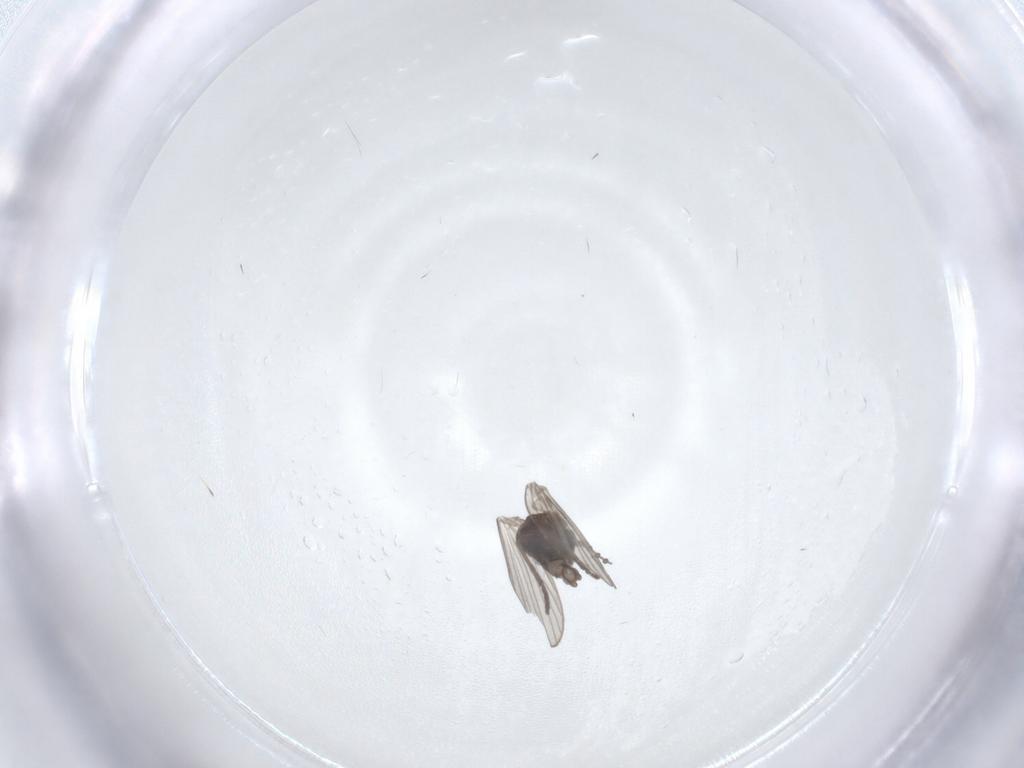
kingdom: Animalia
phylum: Arthropoda
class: Insecta
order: Diptera
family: Psychodidae
